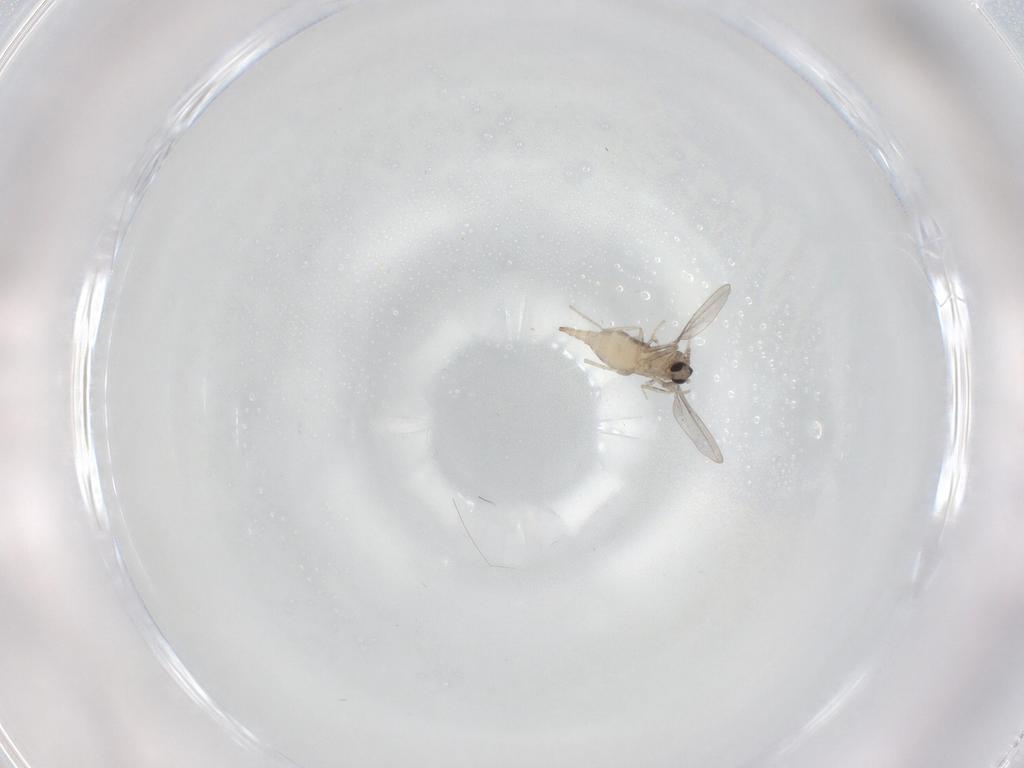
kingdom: Animalia
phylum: Arthropoda
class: Insecta
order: Diptera
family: Cecidomyiidae
